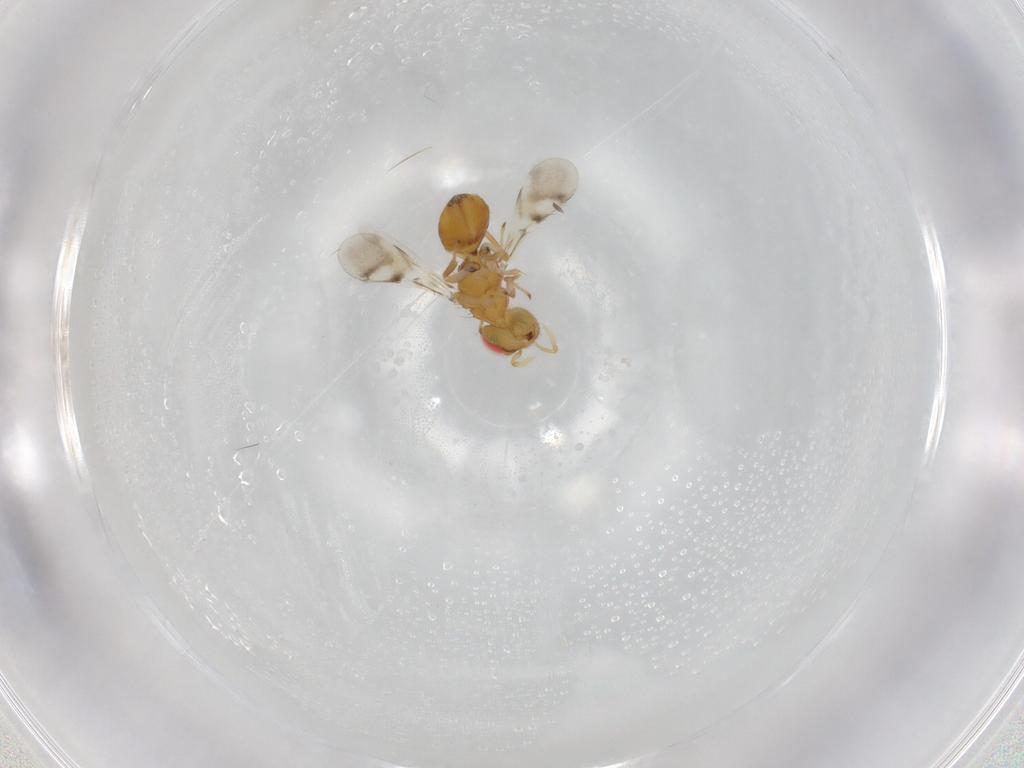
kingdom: Animalia
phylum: Arthropoda
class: Insecta
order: Hymenoptera
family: Eulophidae
